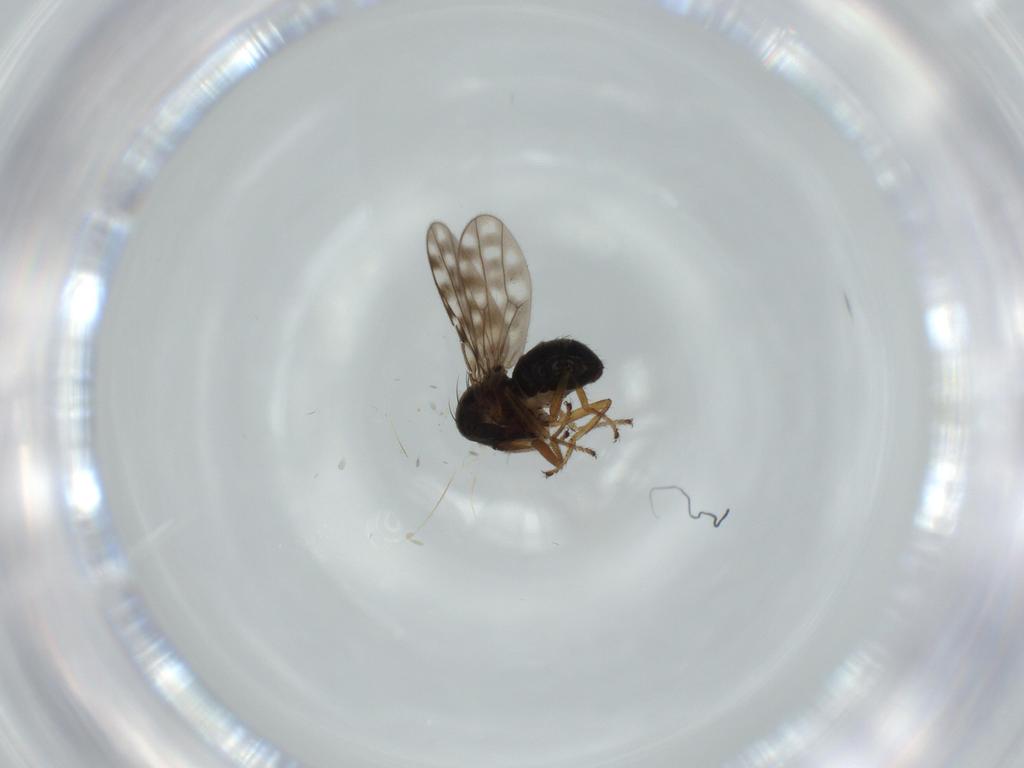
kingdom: Animalia
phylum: Arthropoda
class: Insecta
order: Diptera
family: Ephydridae
